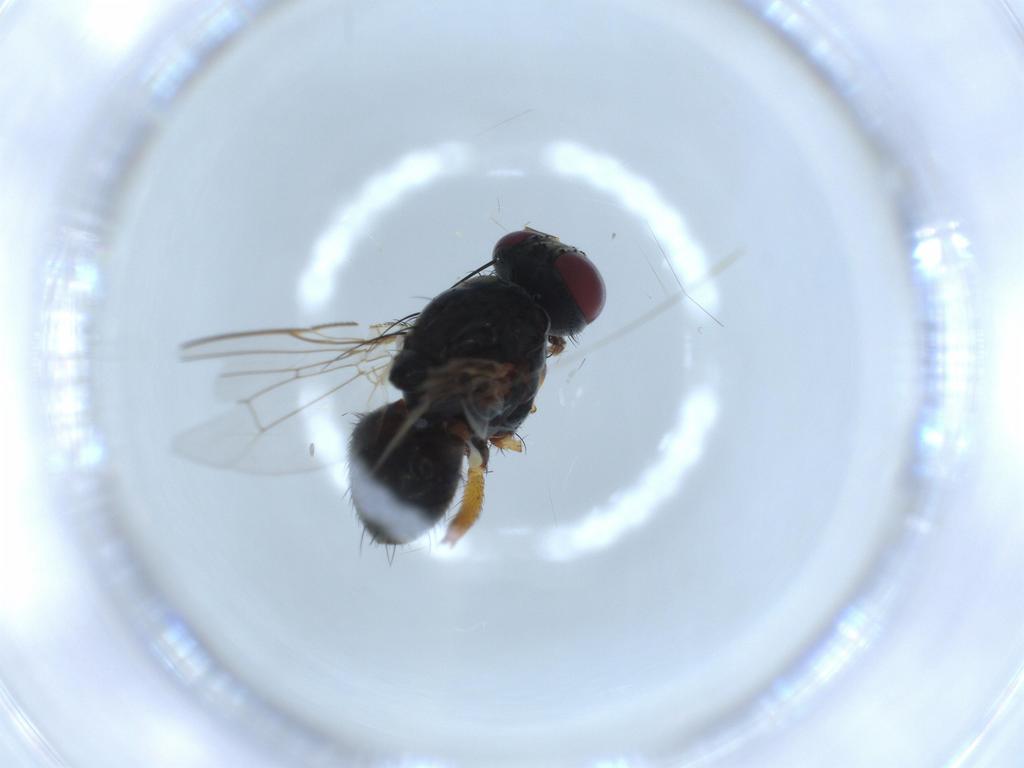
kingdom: Animalia
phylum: Arthropoda
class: Insecta
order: Diptera
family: Muscidae
